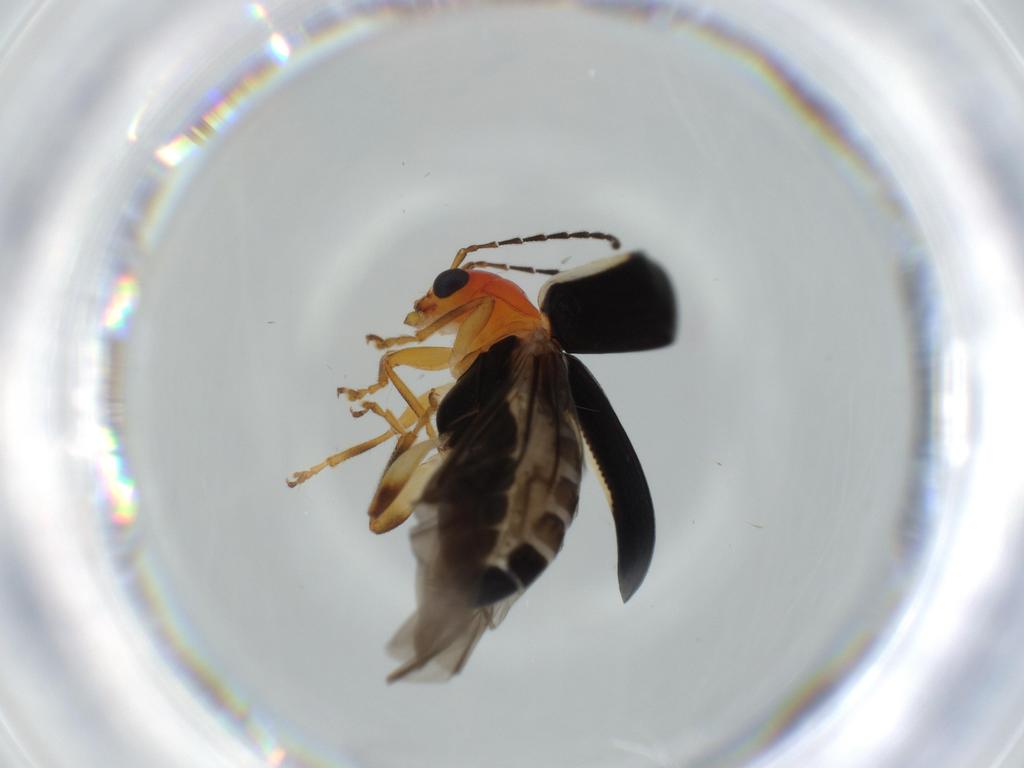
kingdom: Animalia
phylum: Arthropoda
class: Insecta
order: Coleoptera
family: Chrysomelidae
